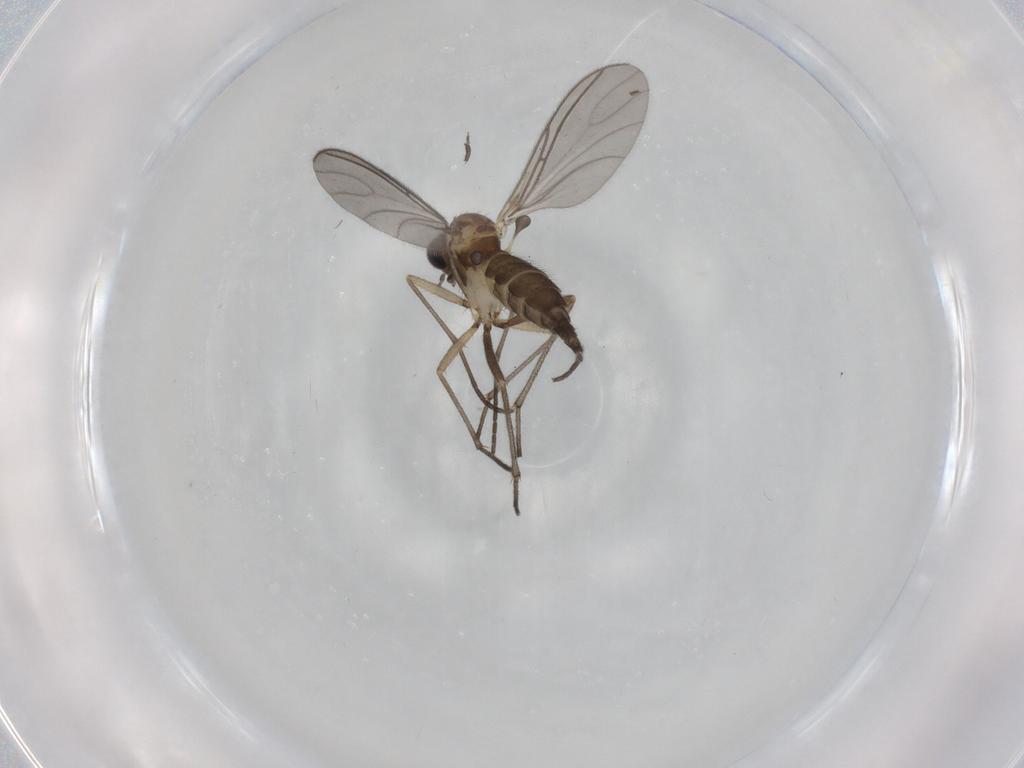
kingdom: Animalia
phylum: Arthropoda
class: Insecta
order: Diptera
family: Sciaridae
